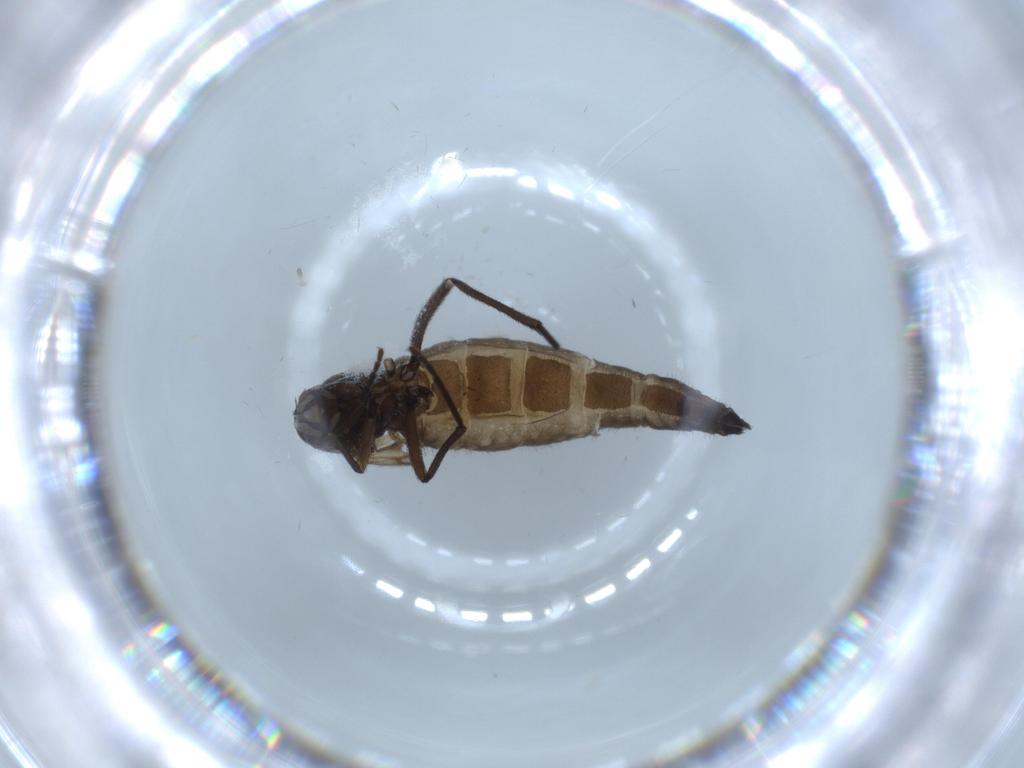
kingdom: Animalia
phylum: Arthropoda
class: Insecta
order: Diptera
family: Sciaridae
